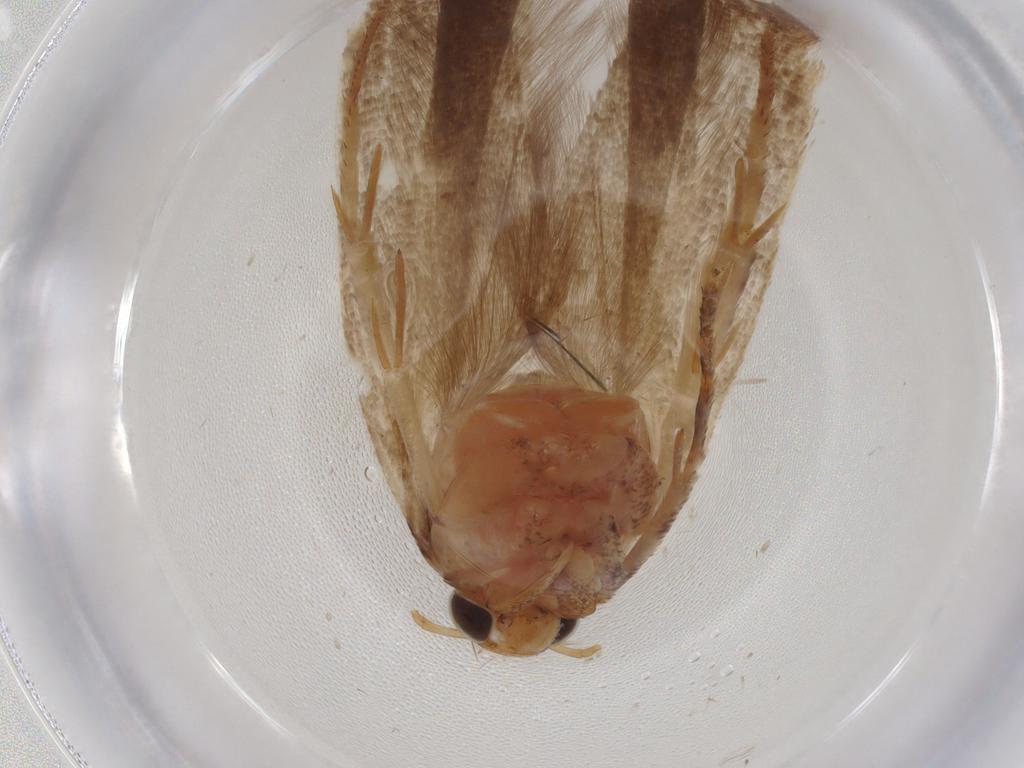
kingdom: Animalia
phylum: Arthropoda
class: Insecta
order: Lepidoptera
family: Gelechiidae
